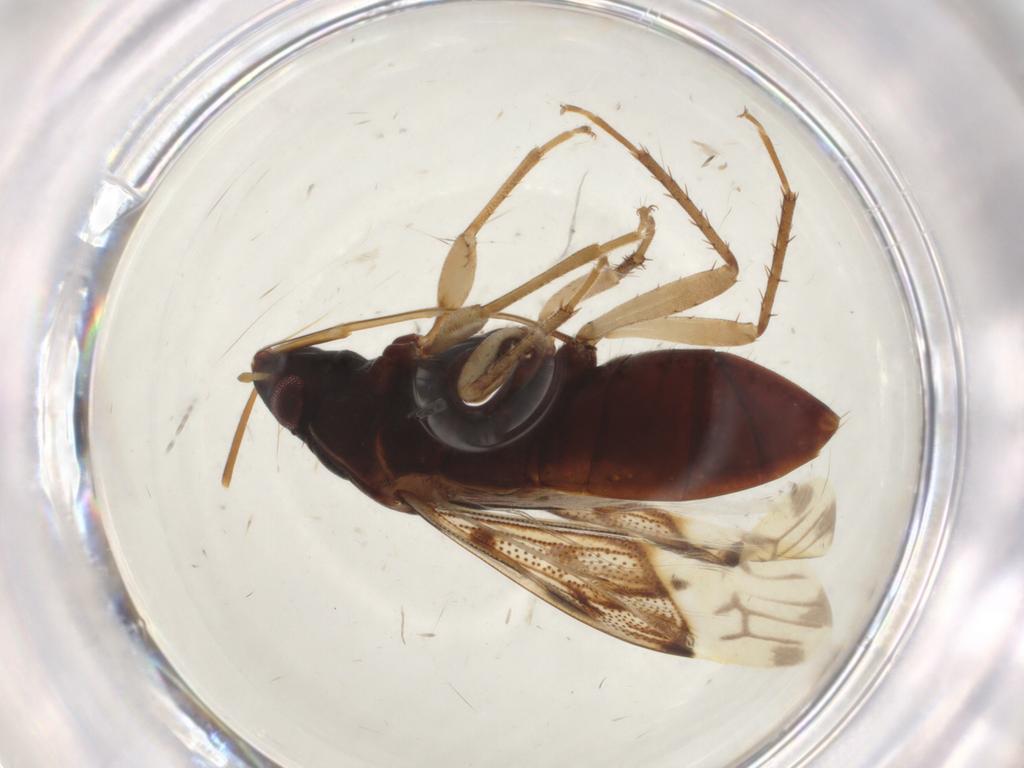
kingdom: Animalia
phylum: Arthropoda
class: Insecta
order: Hemiptera
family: Rhyparochromidae
